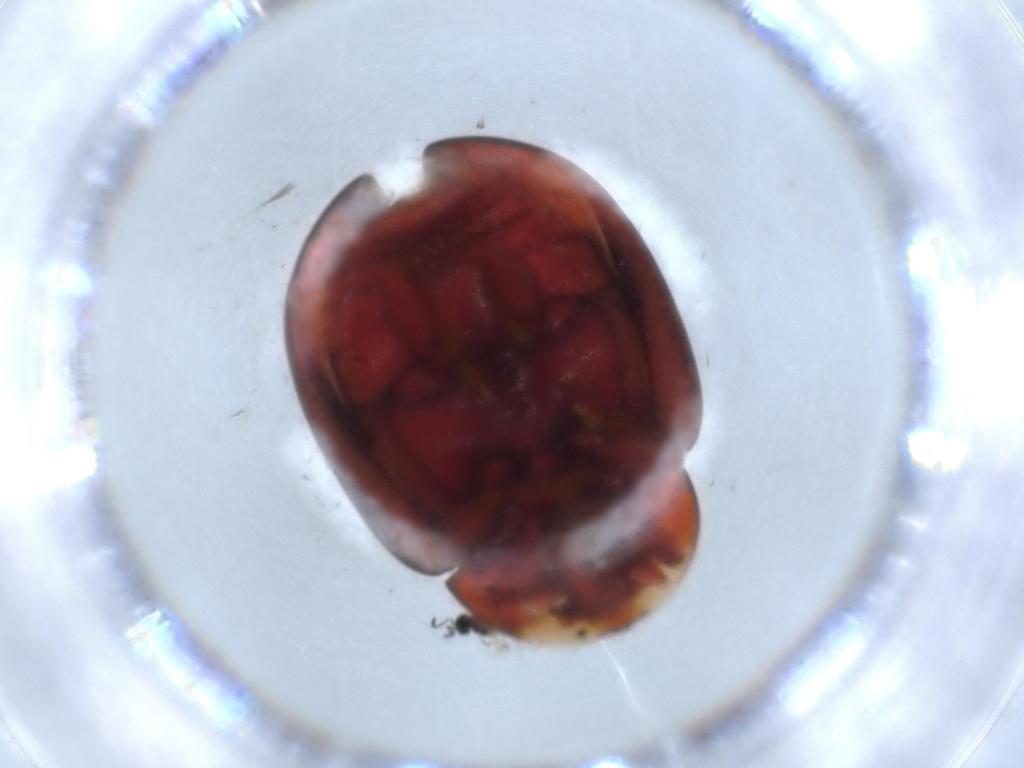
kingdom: Animalia
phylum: Arthropoda
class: Insecta
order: Coleoptera
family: Coccinellidae
